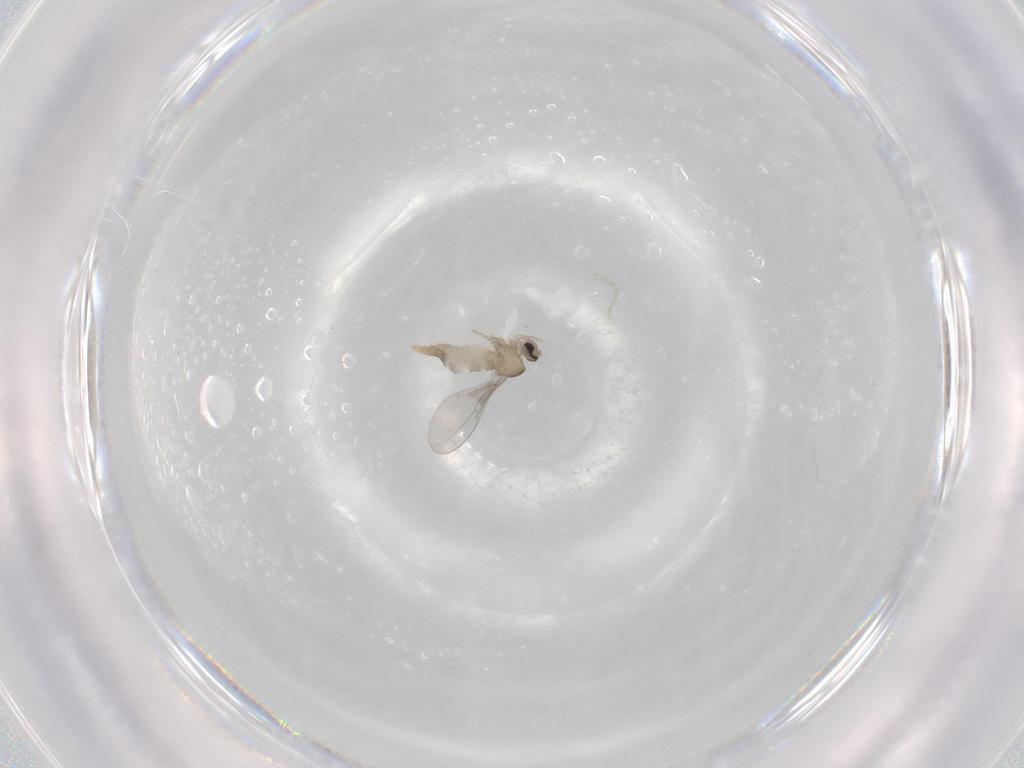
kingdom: Animalia
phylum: Arthropoda
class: Insecta
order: Diptera
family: Cecidomyiidae
